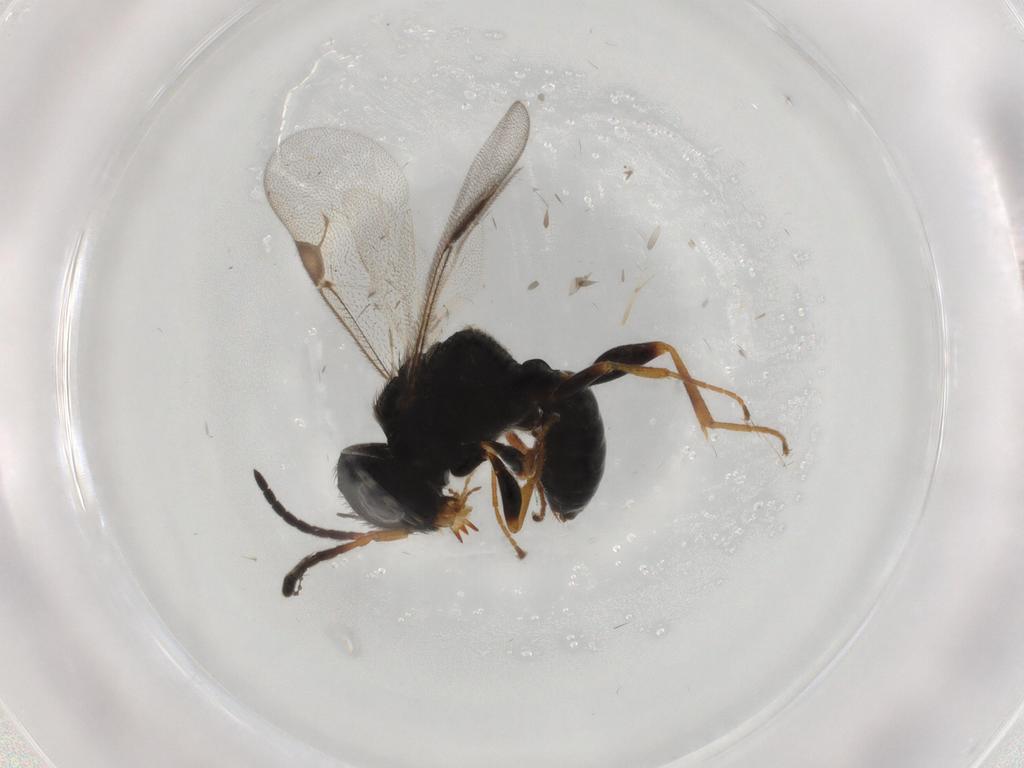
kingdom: Animalia
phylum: Arthropoda
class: Insecta
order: Hymenoptera
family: Dryinidae
